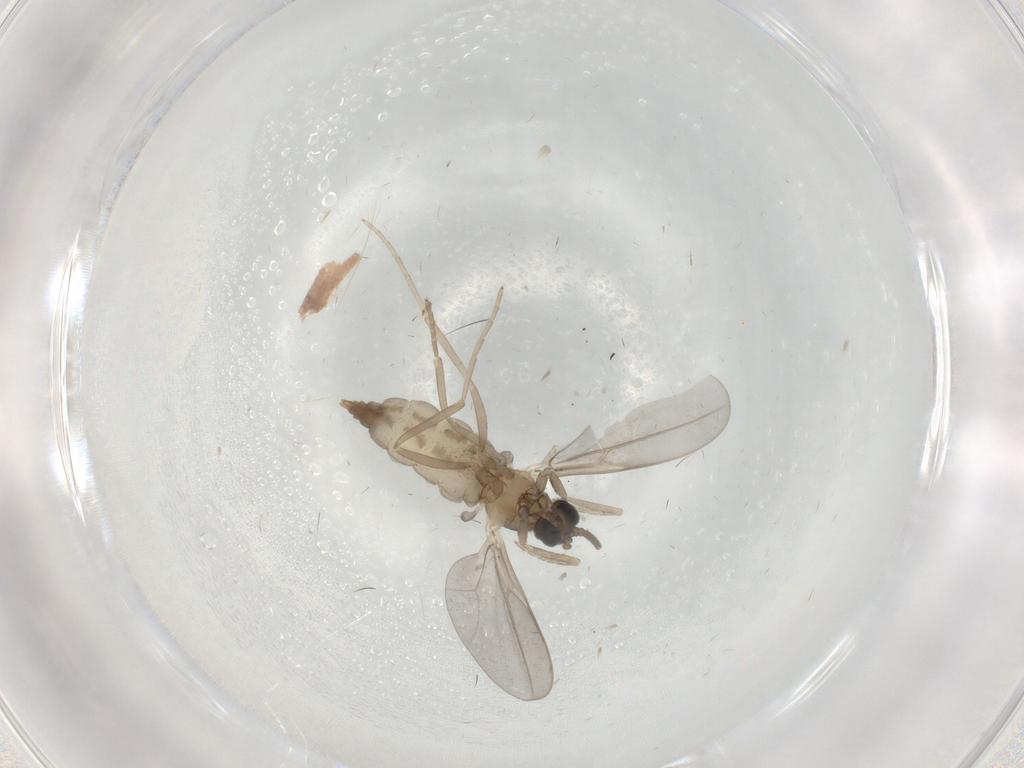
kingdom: Animalia
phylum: Arthropoda
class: Insecta
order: Diptera
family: Cecidomyiidae
